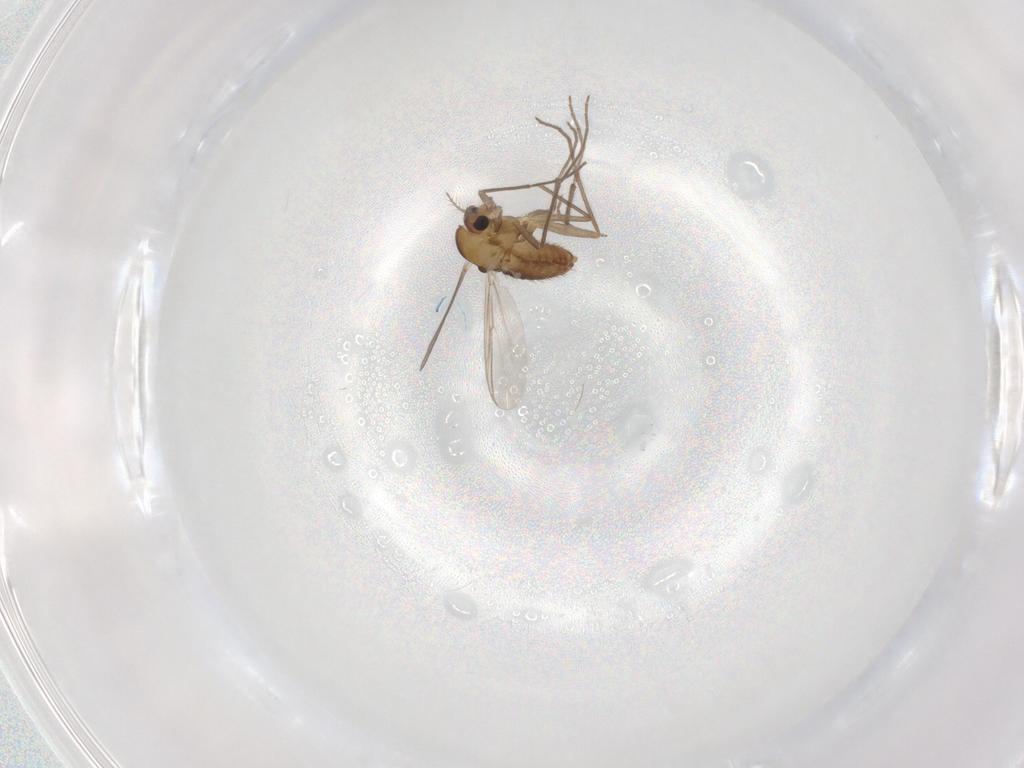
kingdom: Animalia
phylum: Arthropoda
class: Insecta
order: Diptera
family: Chironomidae
